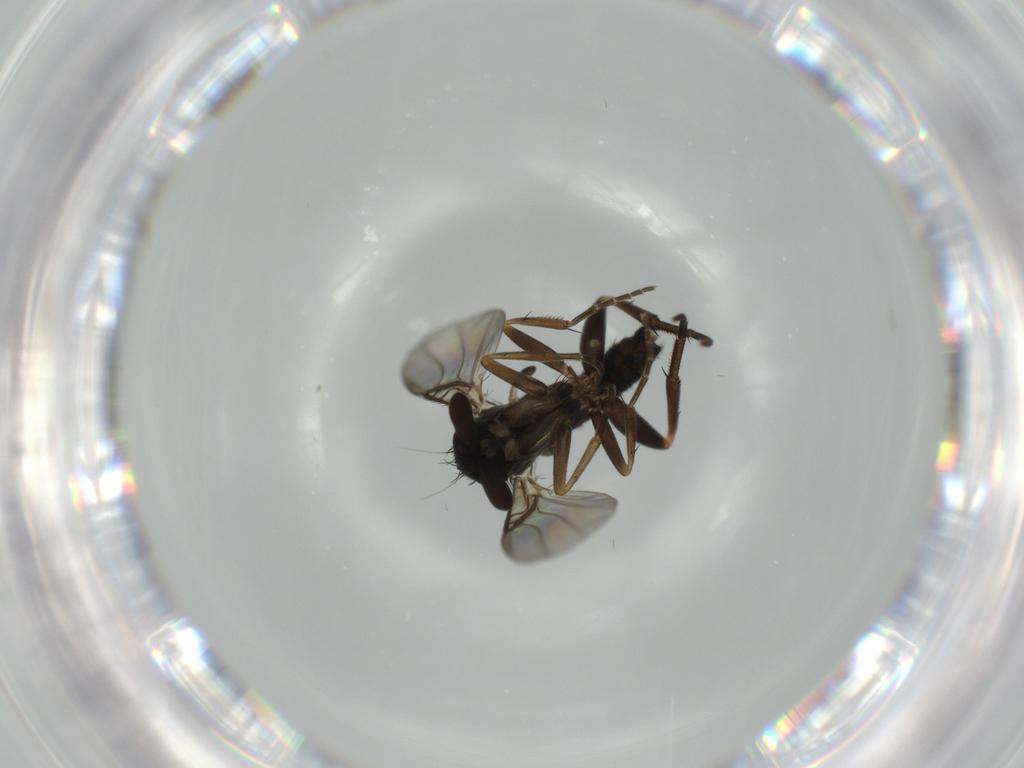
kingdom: Animalia
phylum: Arthropoda
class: Insecta
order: Diptera
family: Phoridae
